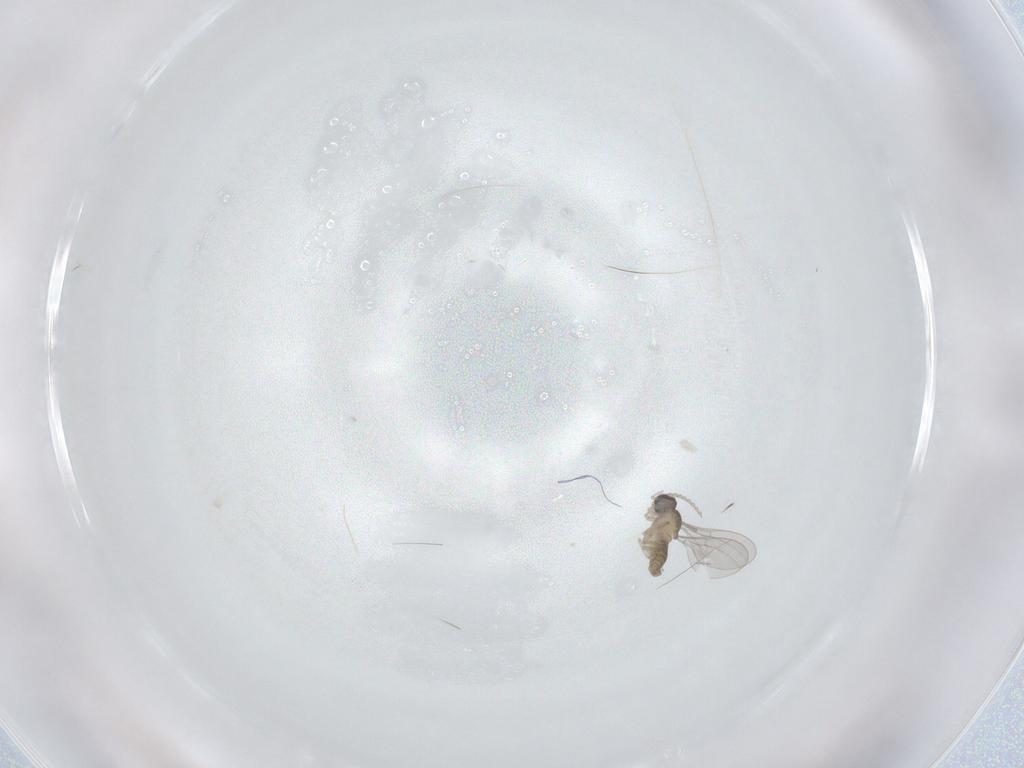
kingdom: Animalia
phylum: Arthropoda
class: Insecta
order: Diptera
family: Cecidomyiidae
